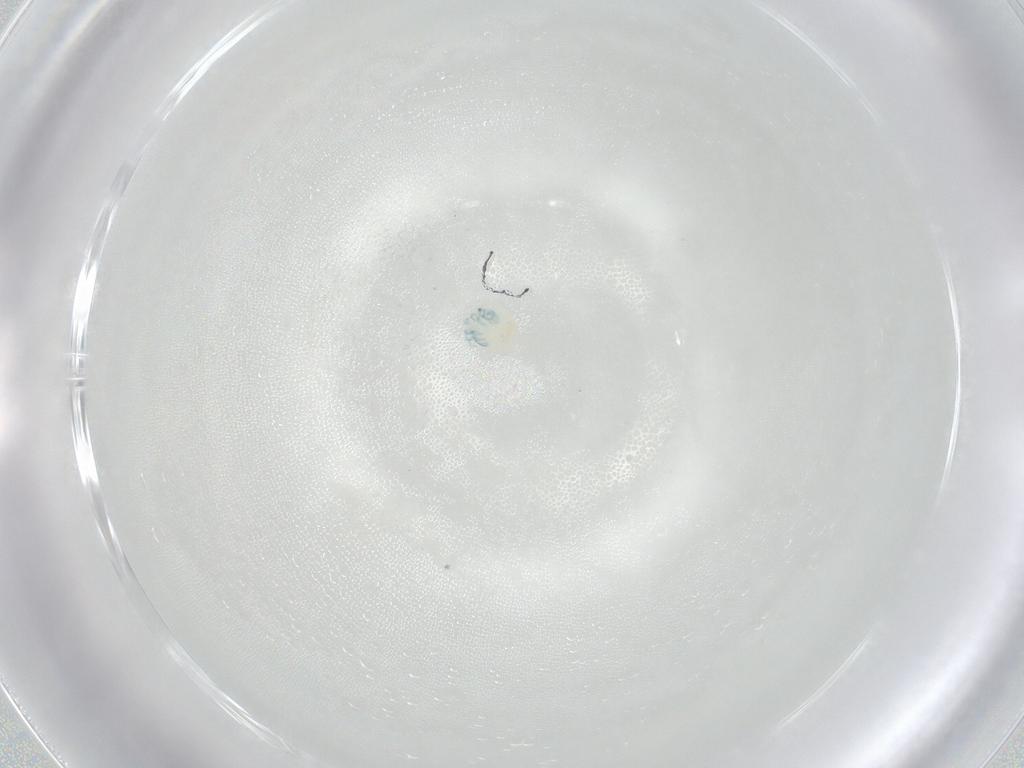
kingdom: Animalia
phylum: Arthropoda
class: Arachnida
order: Trombidiformes
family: Arrenuridae
